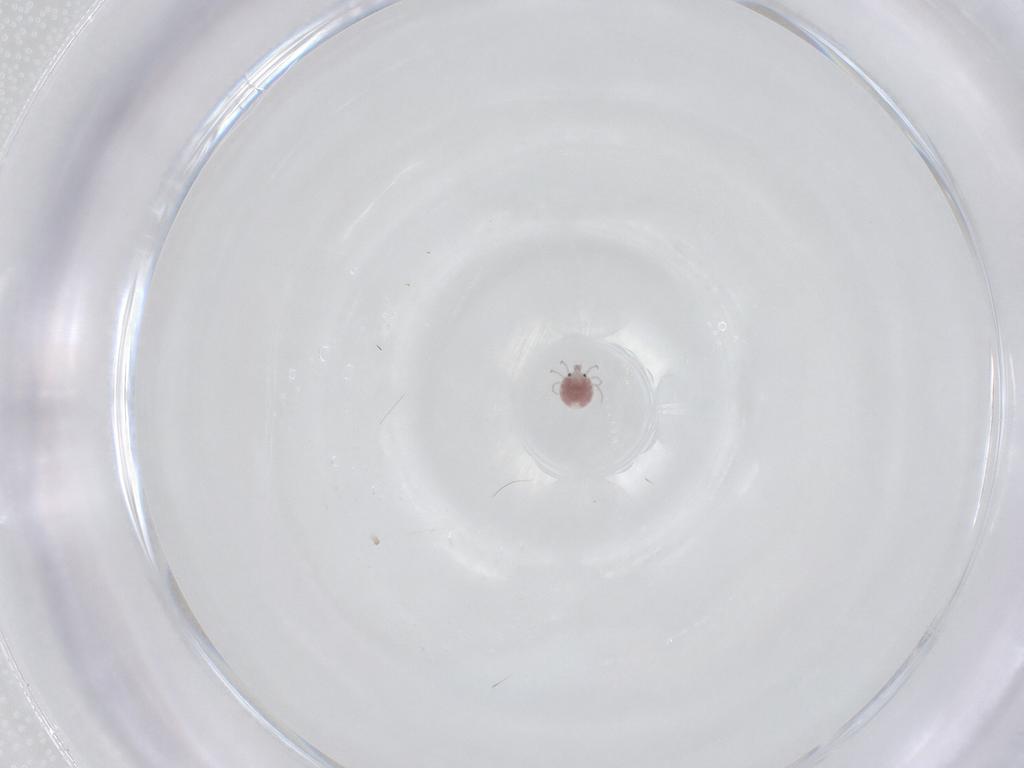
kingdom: Animalia
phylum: Arthropoda
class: Arachnida
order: Trombidiformes
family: Pionidae
